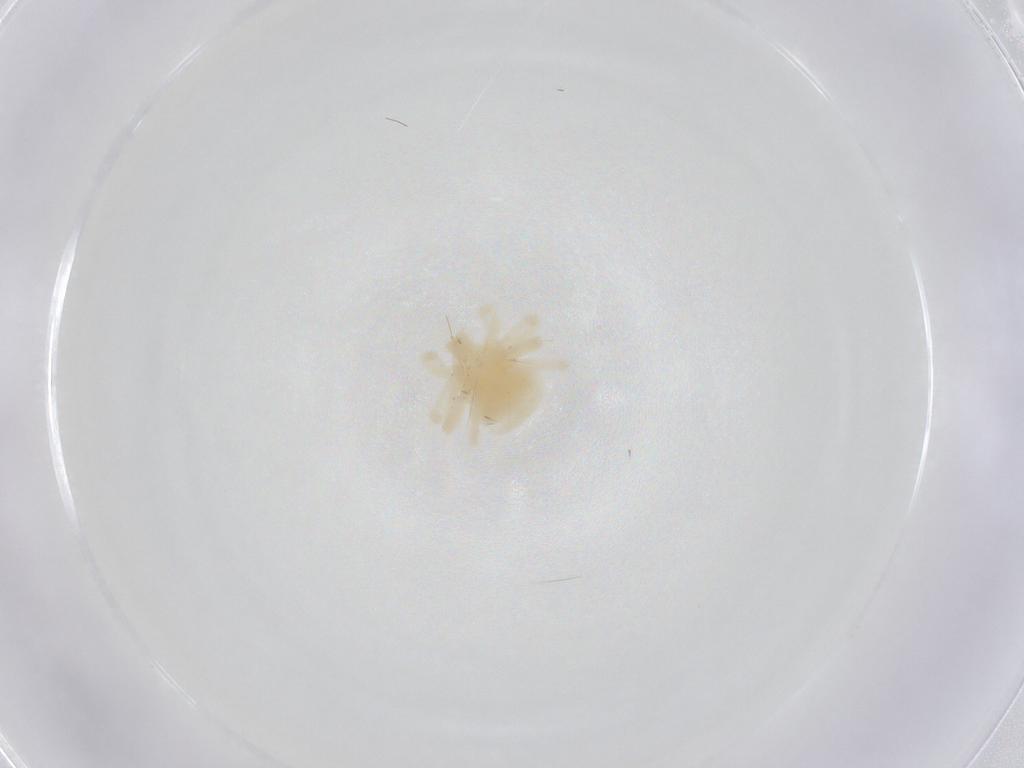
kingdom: Animalia
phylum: Arthropoda
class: Arachnida
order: Trombidiformes
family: Anystidae
